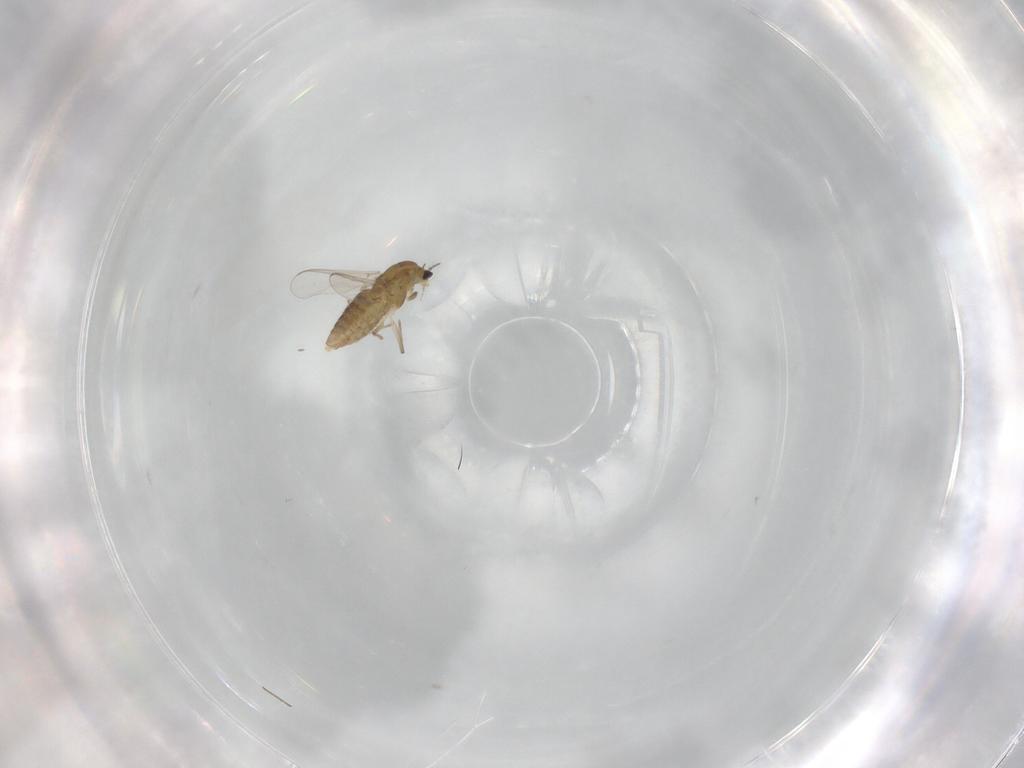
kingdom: Animalia
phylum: Arthropoda
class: Insecta
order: Diptera
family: Chironomidae
